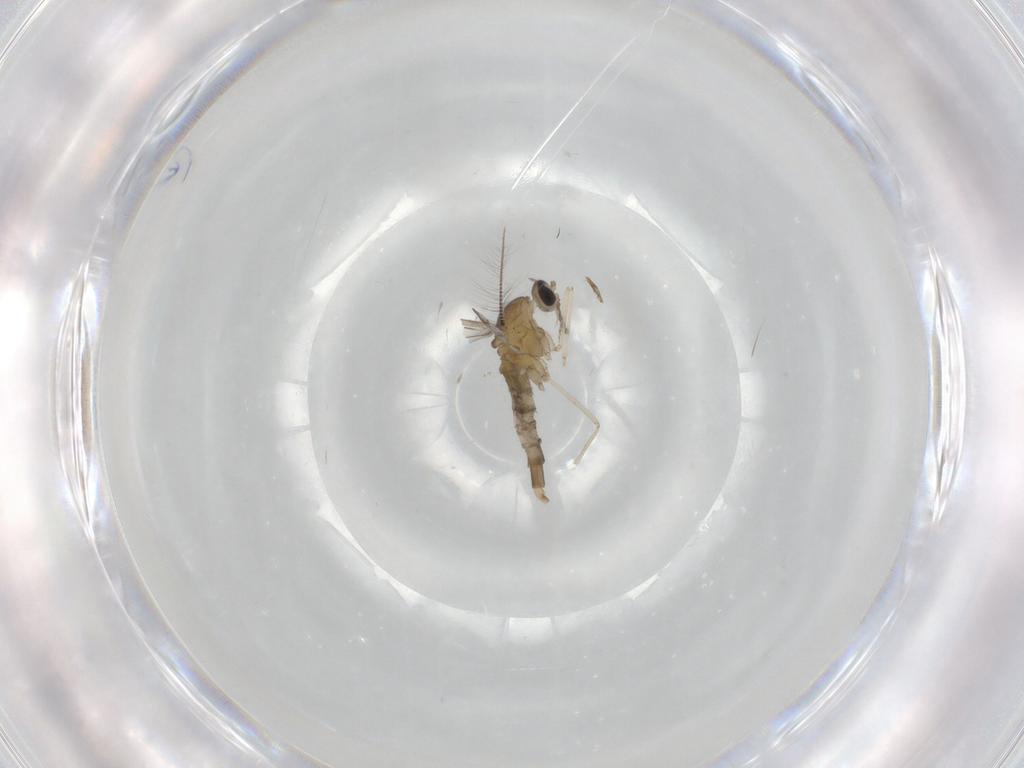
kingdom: Animalia
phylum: Arthropoda
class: Insecta
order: Diptera
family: Cecidomyiidae
